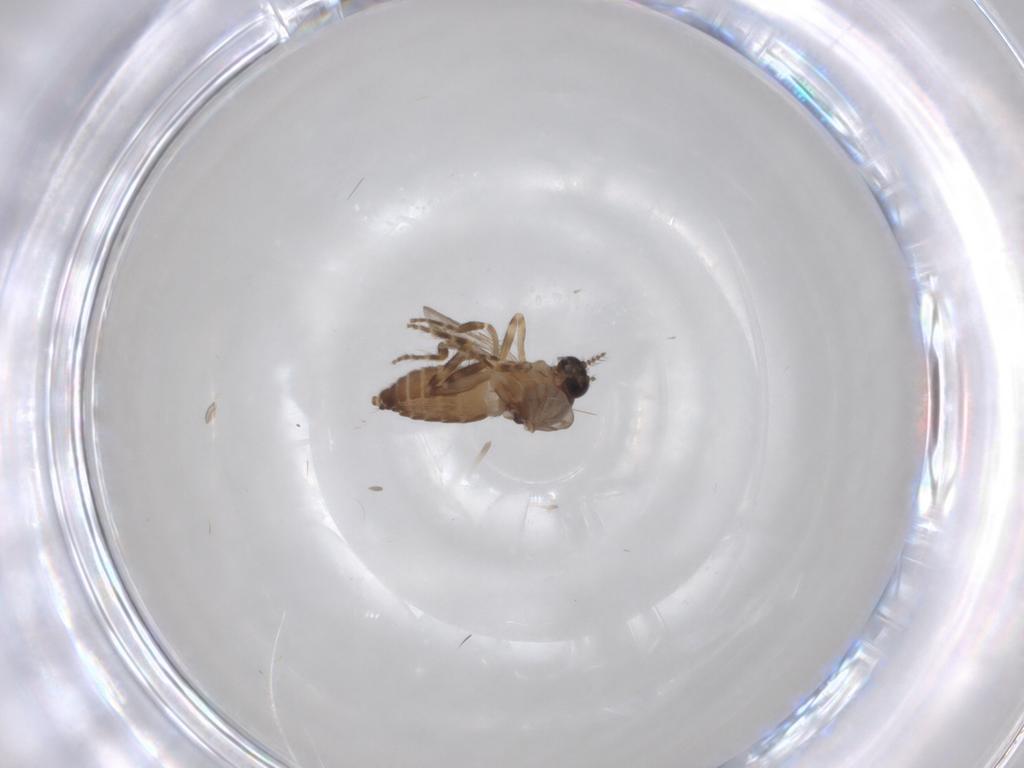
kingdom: Animalia
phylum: Arthropoda
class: Insecta
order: Diptera
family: Ceratopogonidae
